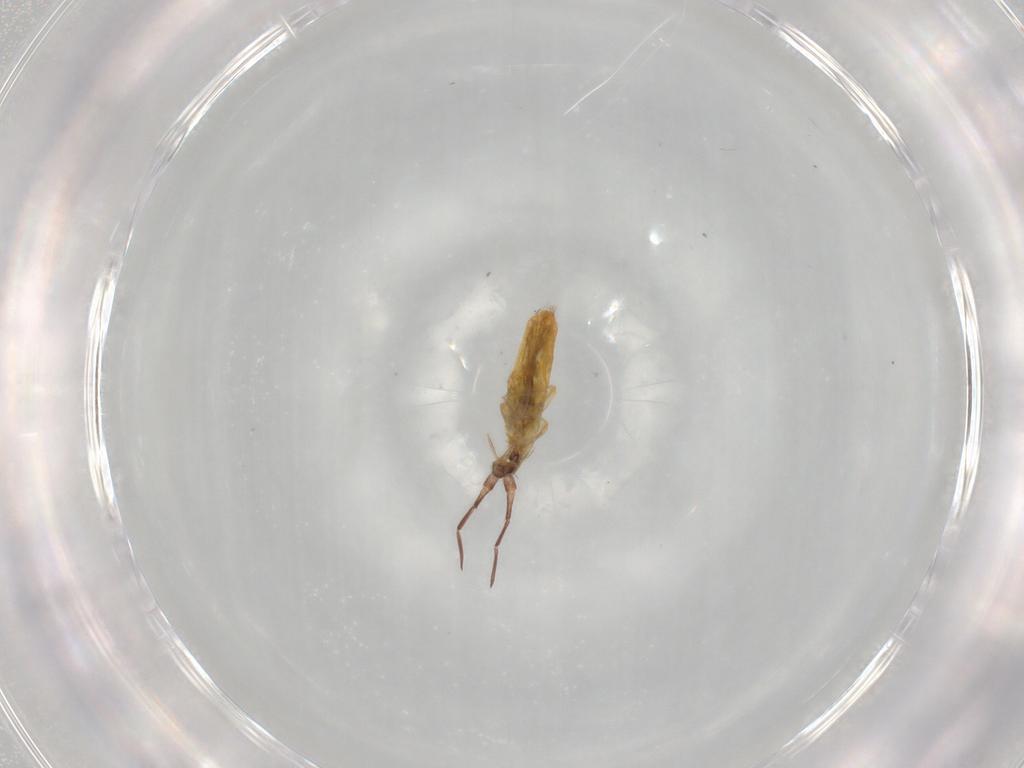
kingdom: Animalia
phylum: Arthropoda
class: Collembola
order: Entomobryomorpha
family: Entomobryidae
